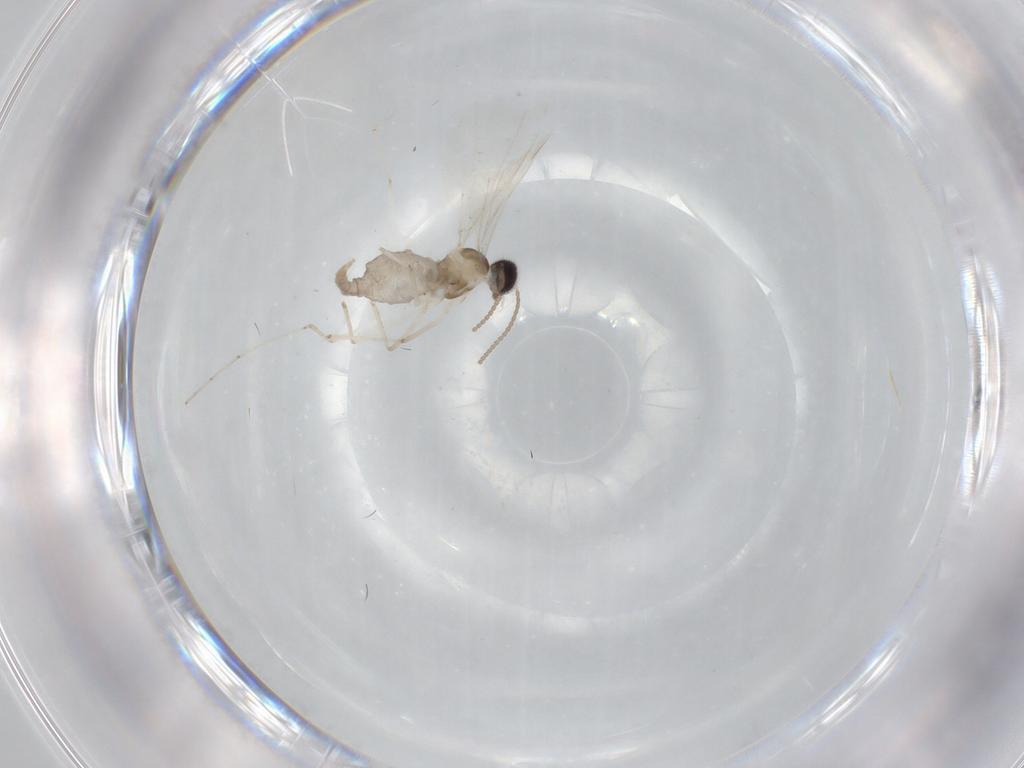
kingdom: Animalia
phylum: Arthropoda
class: Insecta
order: Diptera
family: Cecidomyiidae
